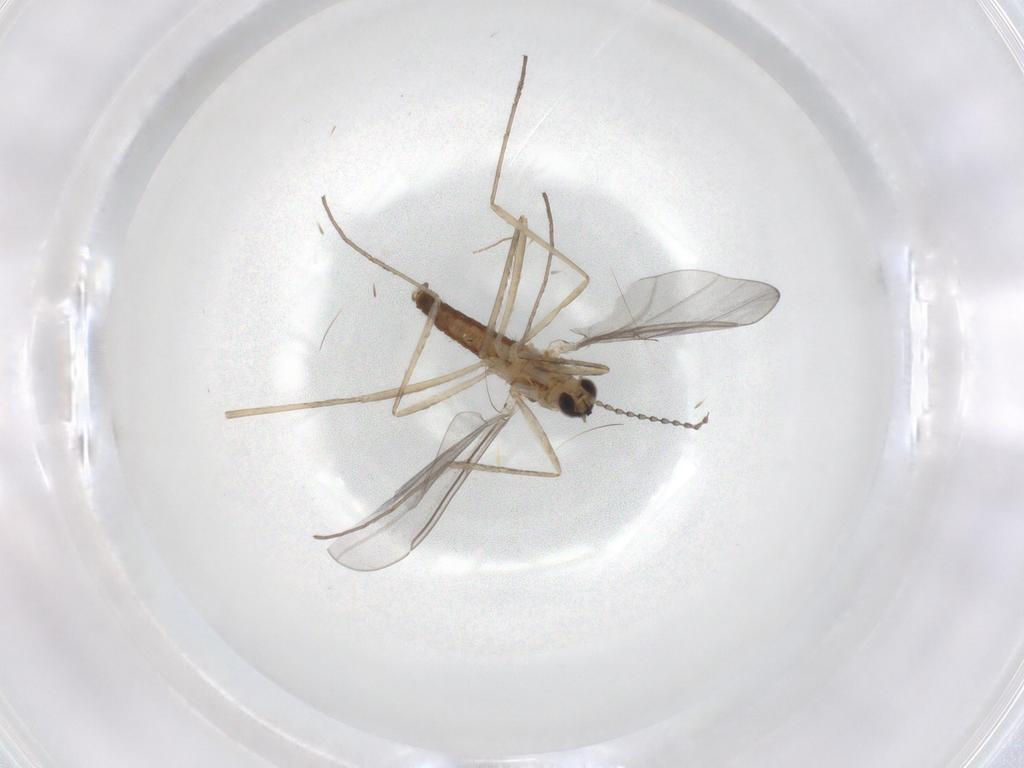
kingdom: Animalia
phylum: Arthropoda
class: Insecta
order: Diptera
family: Cecidomyiidae
